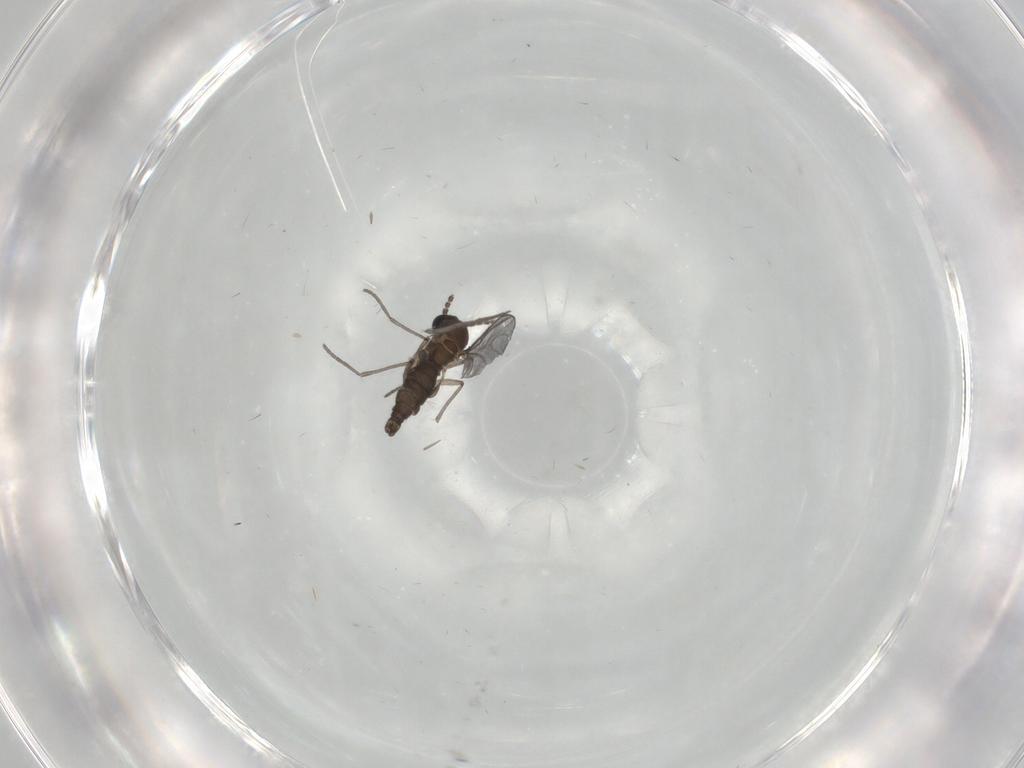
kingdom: Animalia
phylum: Arthropoda
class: Insecta
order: Diptera
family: Psychodidae
